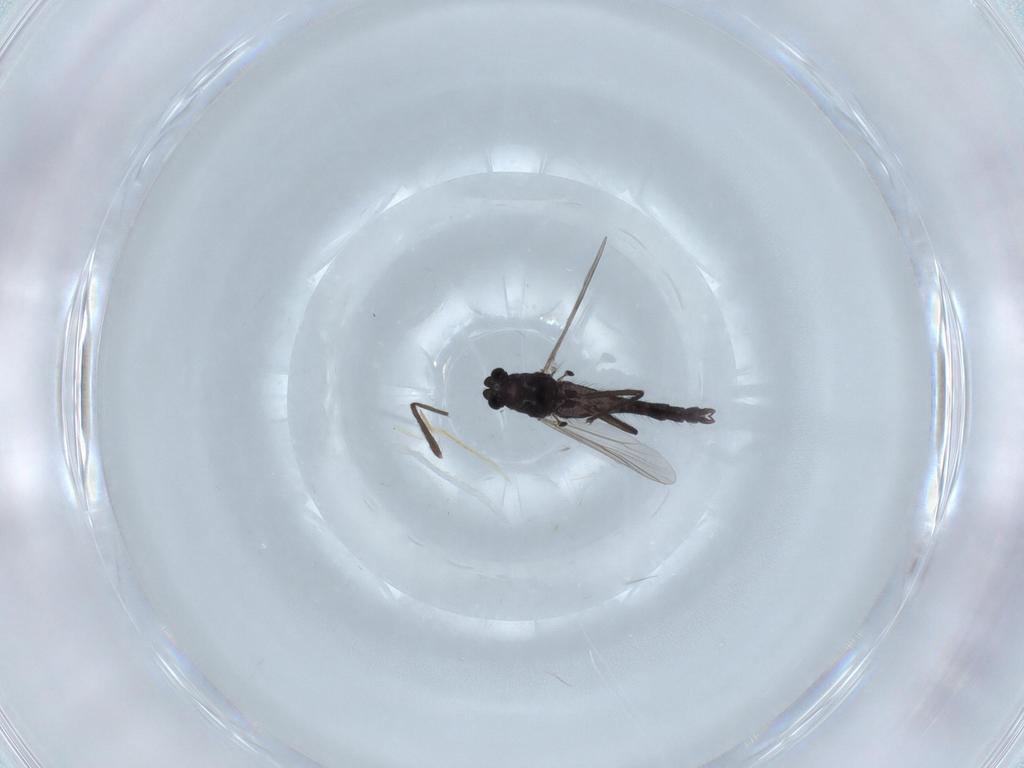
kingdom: Animalia
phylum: Arthropoda
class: Insecta
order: Diptera
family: Chironomidae
